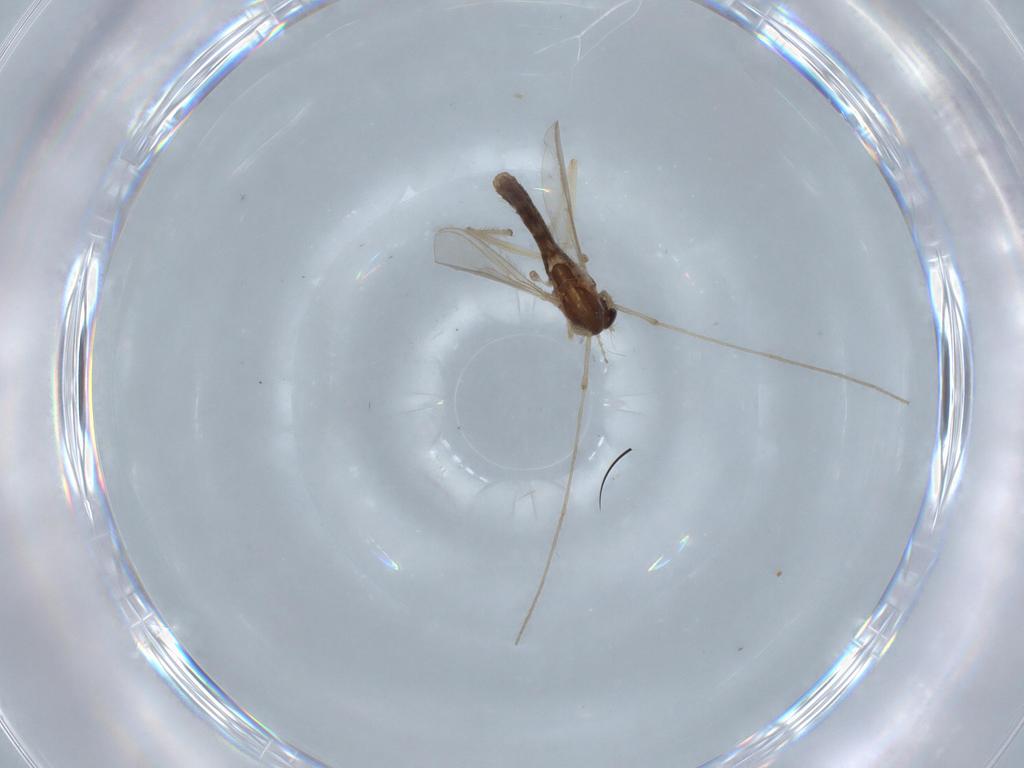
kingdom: Animalia
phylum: Arthropoda
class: Insecta
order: Diptera
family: Chironomidae
